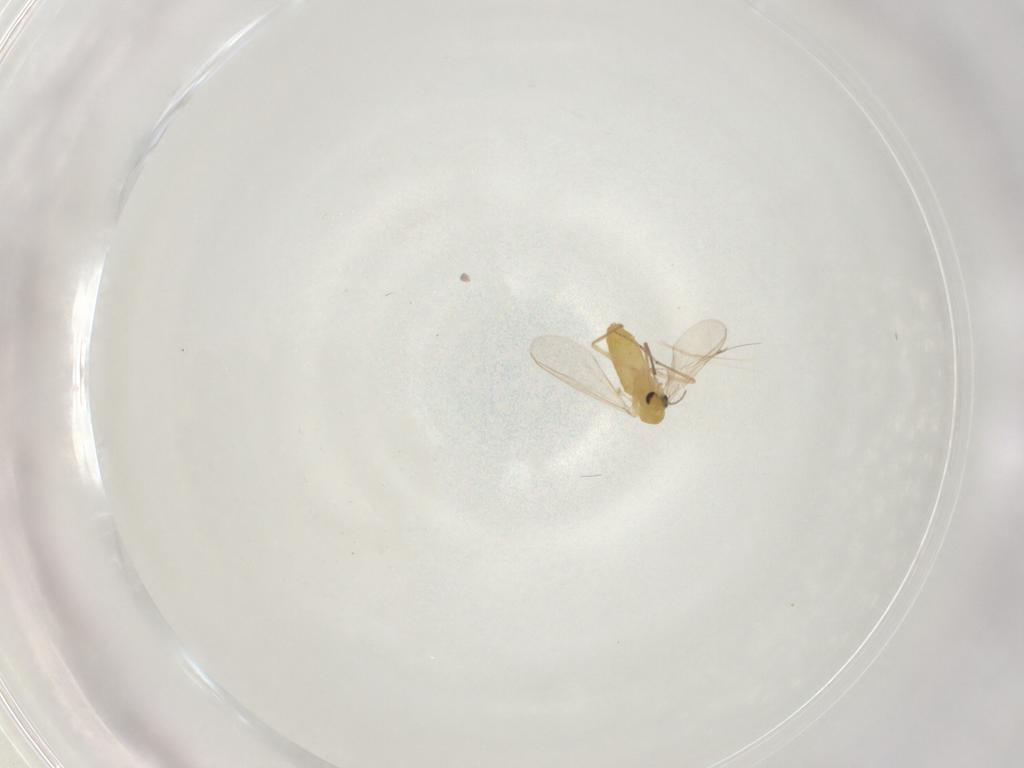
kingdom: Animalia
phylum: Arthropoda
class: Insecta
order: Diptera
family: Chironomidae
